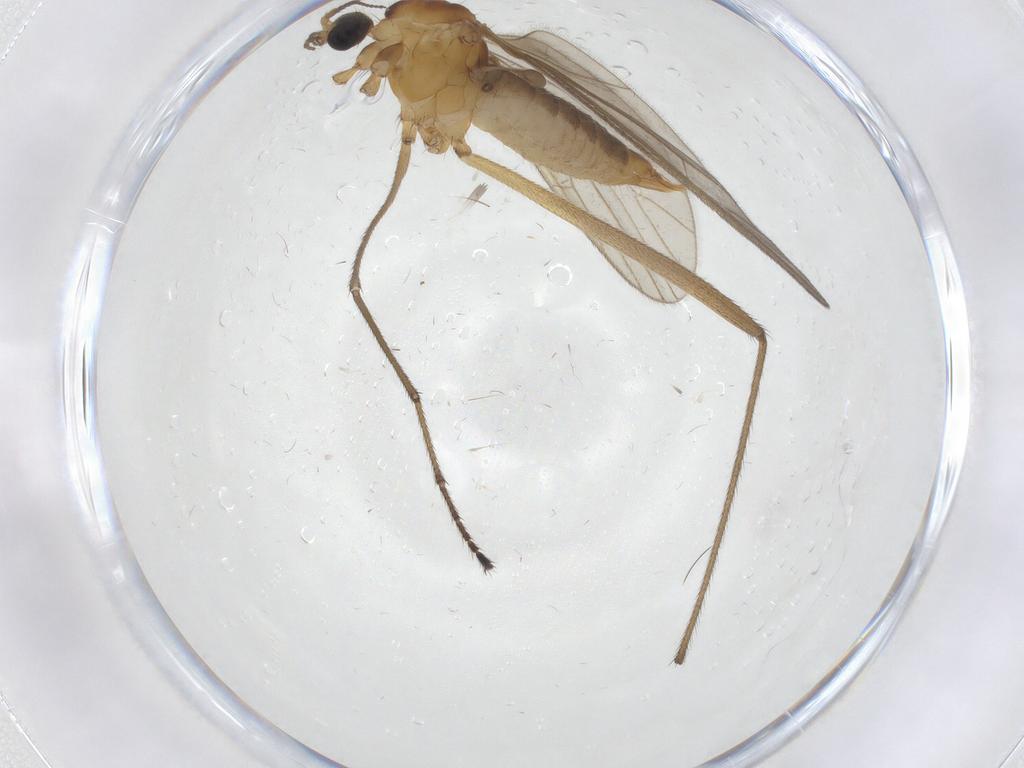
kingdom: Animalia
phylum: Arthropoda
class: Insecta
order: Diptera
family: Limoniidae
